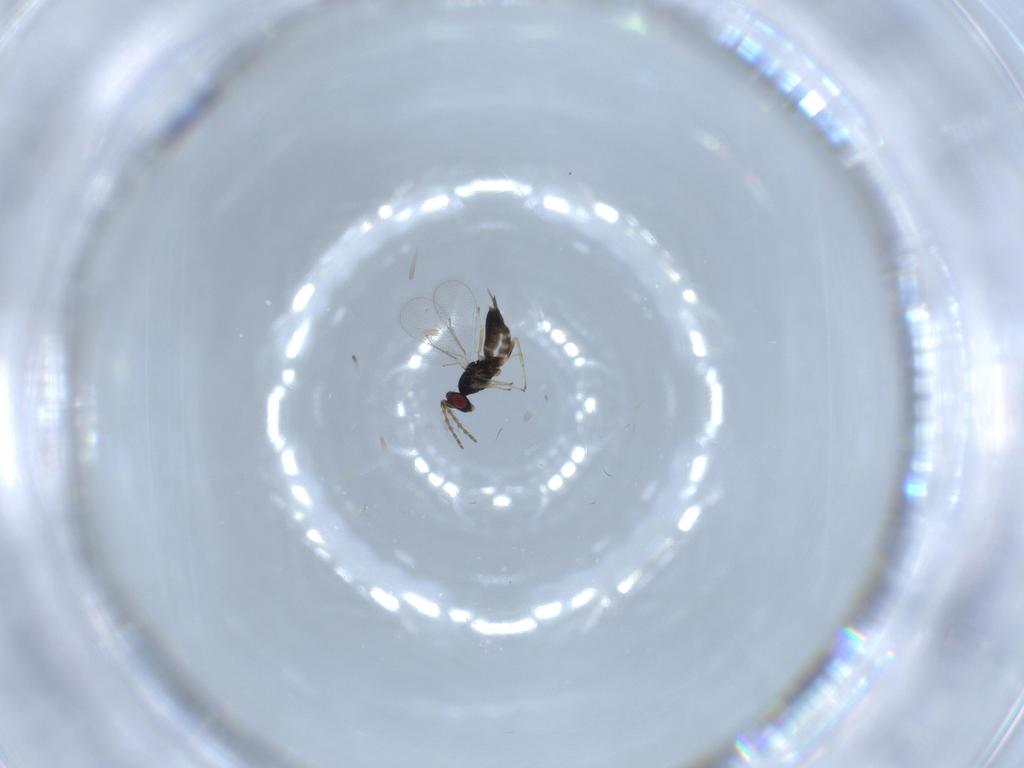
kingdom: Animalia
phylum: Arthropoda
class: Insecta
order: Hymenoptera
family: Eulophidae
